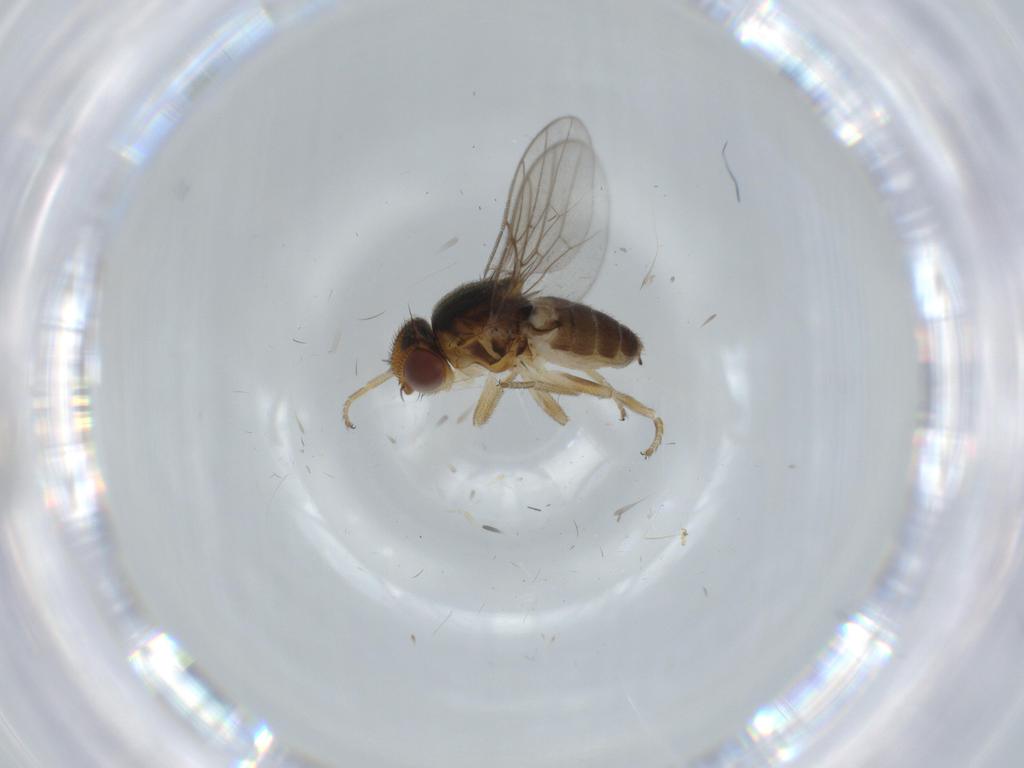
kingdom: Animalia
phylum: Arthropoda
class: Insecta
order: Diptera
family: Chloropidae
